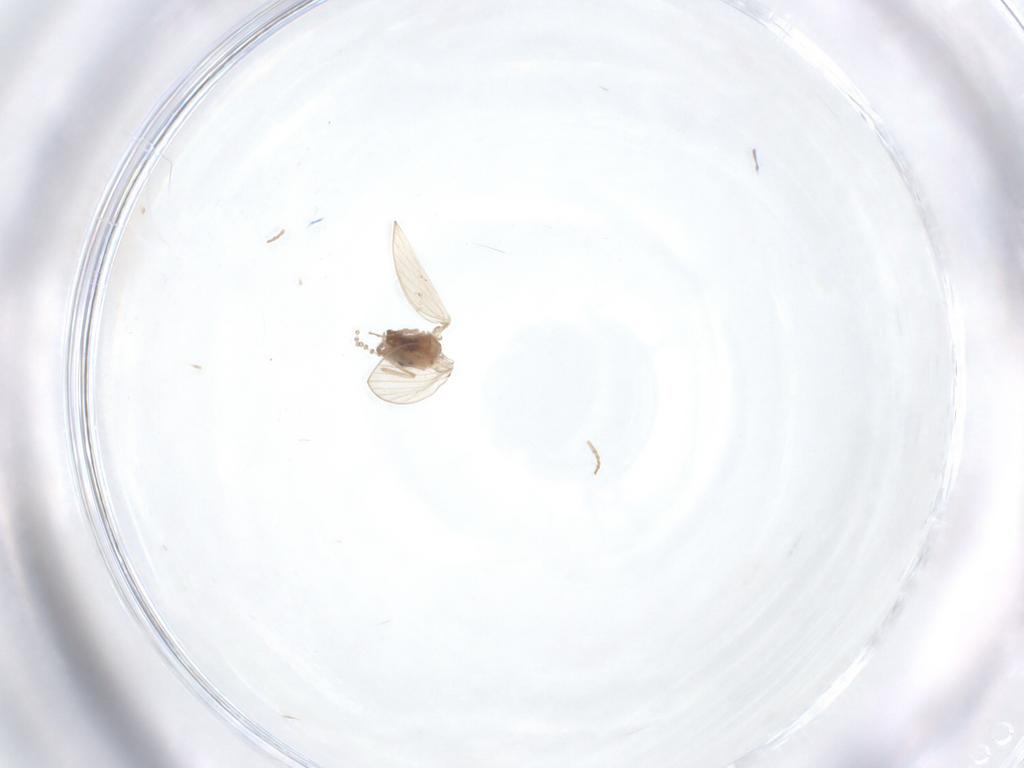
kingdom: Animalia
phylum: Arthropoda
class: Insecta
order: Diptera
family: Psychodidae
